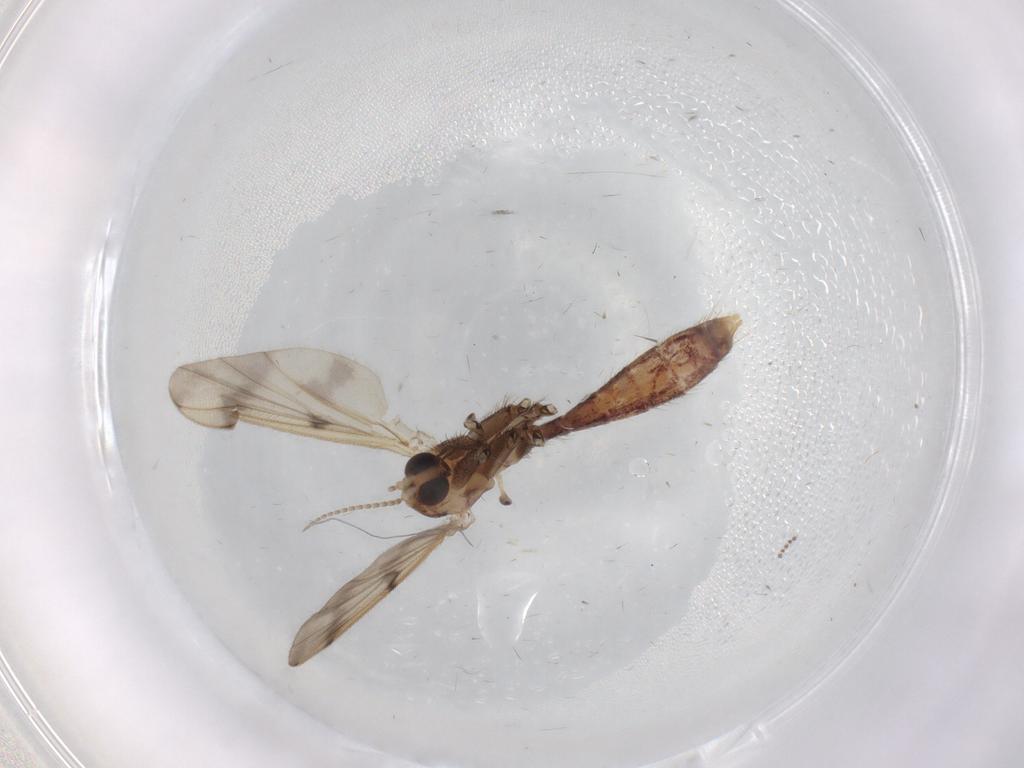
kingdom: Animalia
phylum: Arthropoda
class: Insecta
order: Diptera
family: Mycetophilidae
